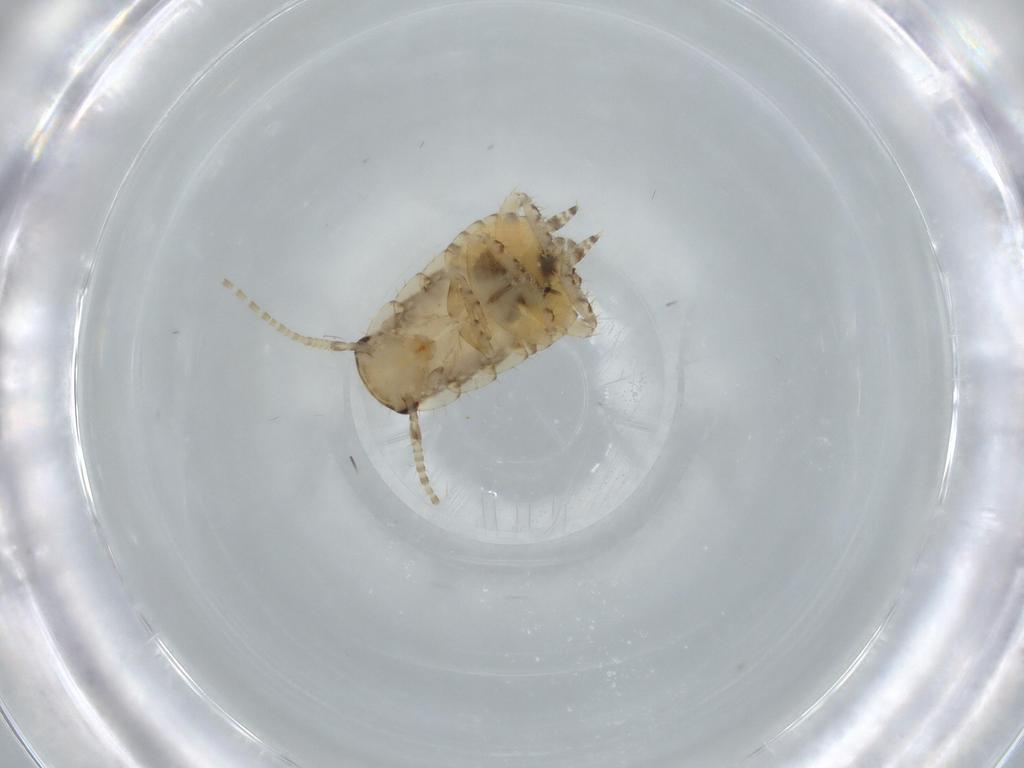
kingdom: Animalia
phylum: Arthropoda
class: Insecta
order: Blattodea
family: Ectobiidae
